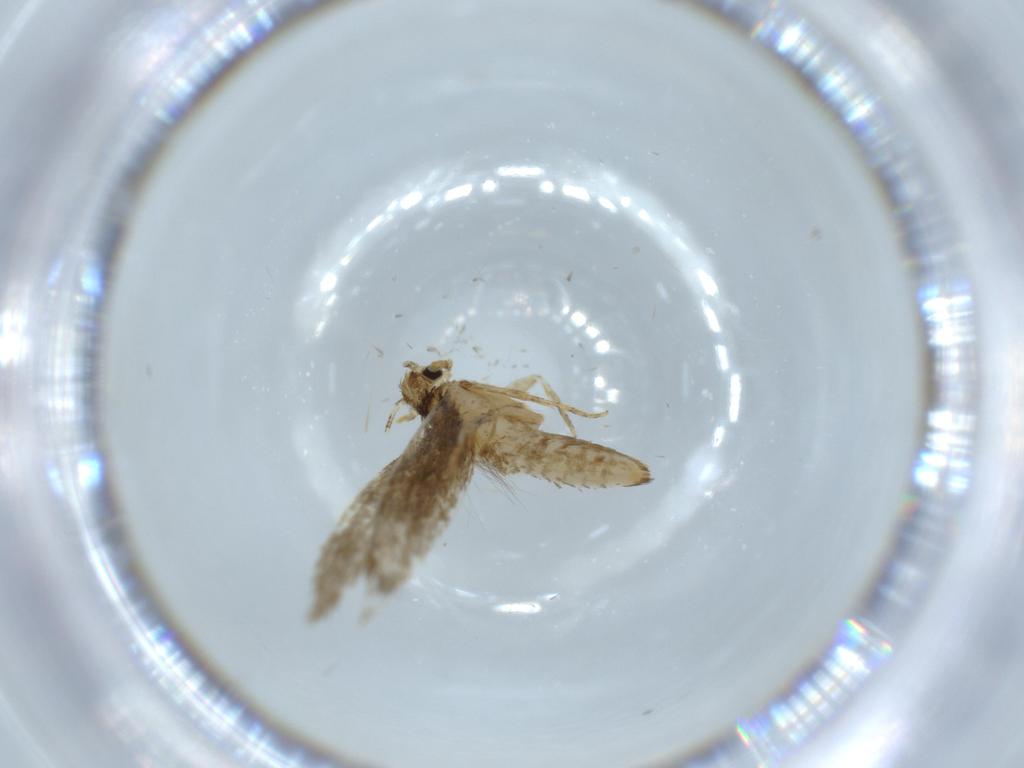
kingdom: Animalia
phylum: Arthropoda
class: Insecta
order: Lepidoptera
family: Tineidae
